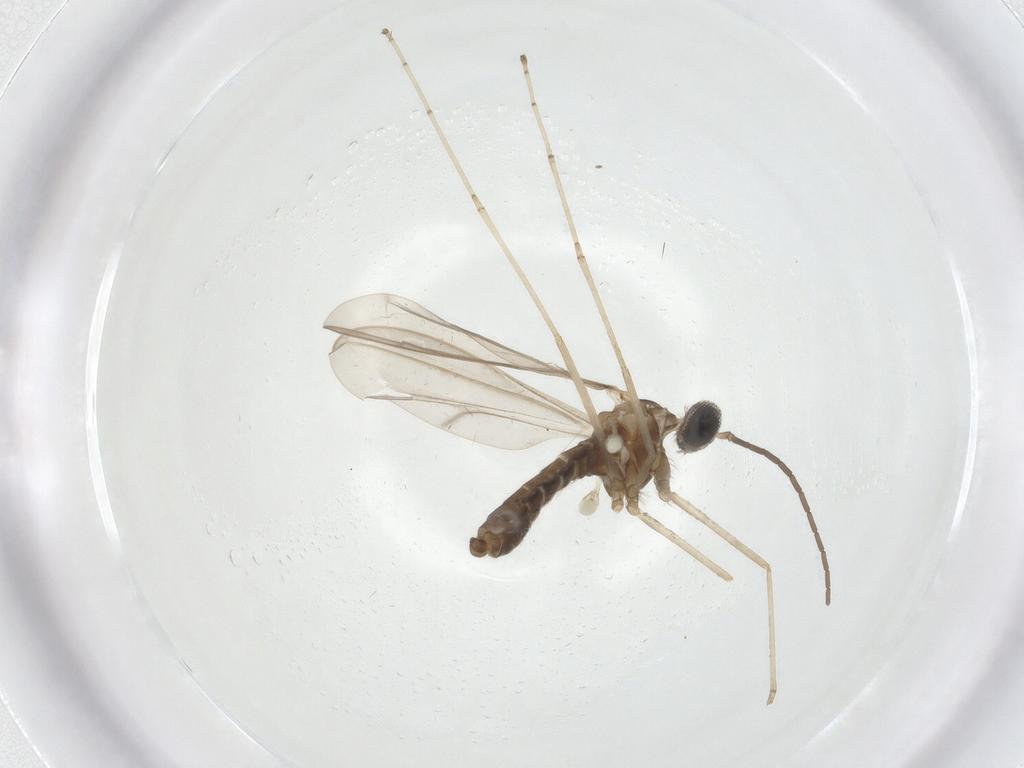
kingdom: Animalia
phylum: Arthropoda
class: Insecta
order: Diptera
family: Cecidomyiidae
